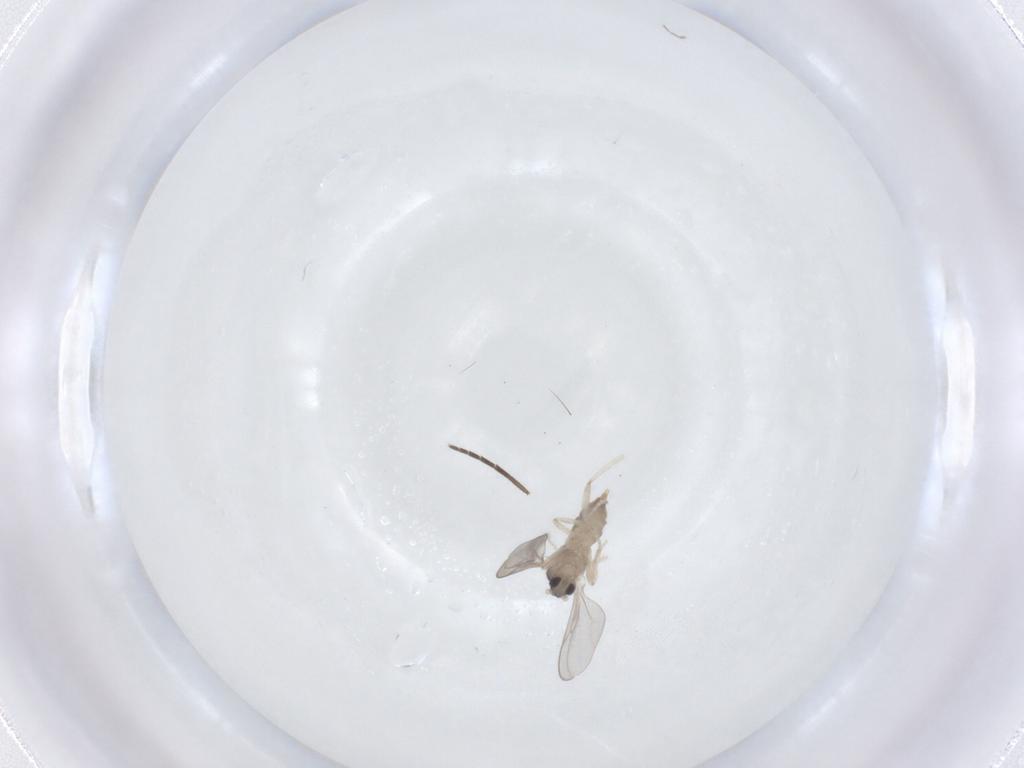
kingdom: Animalia
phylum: Arthropoda
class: Insecta
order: Diptera
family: Cecidomyiidae
